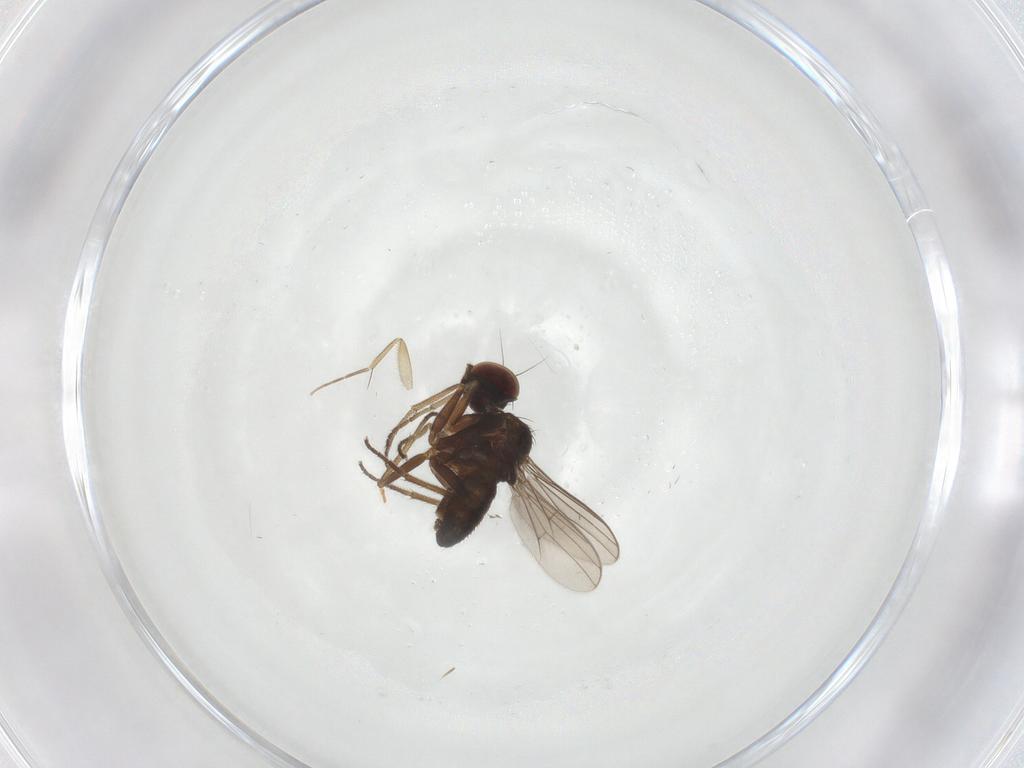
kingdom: Animalia
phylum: Arthropoda
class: Insecta
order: Diptera
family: Dolichopodidae
